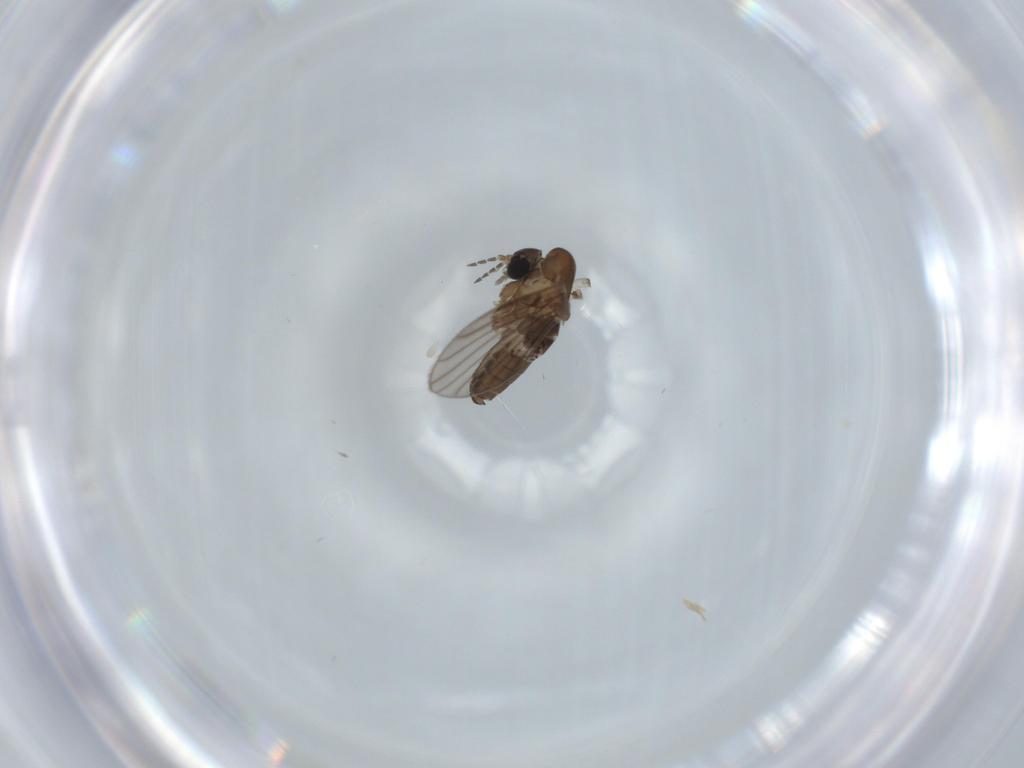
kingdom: Animalia
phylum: Arthropoda
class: Insecta
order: Diptera
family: Psychodidae
